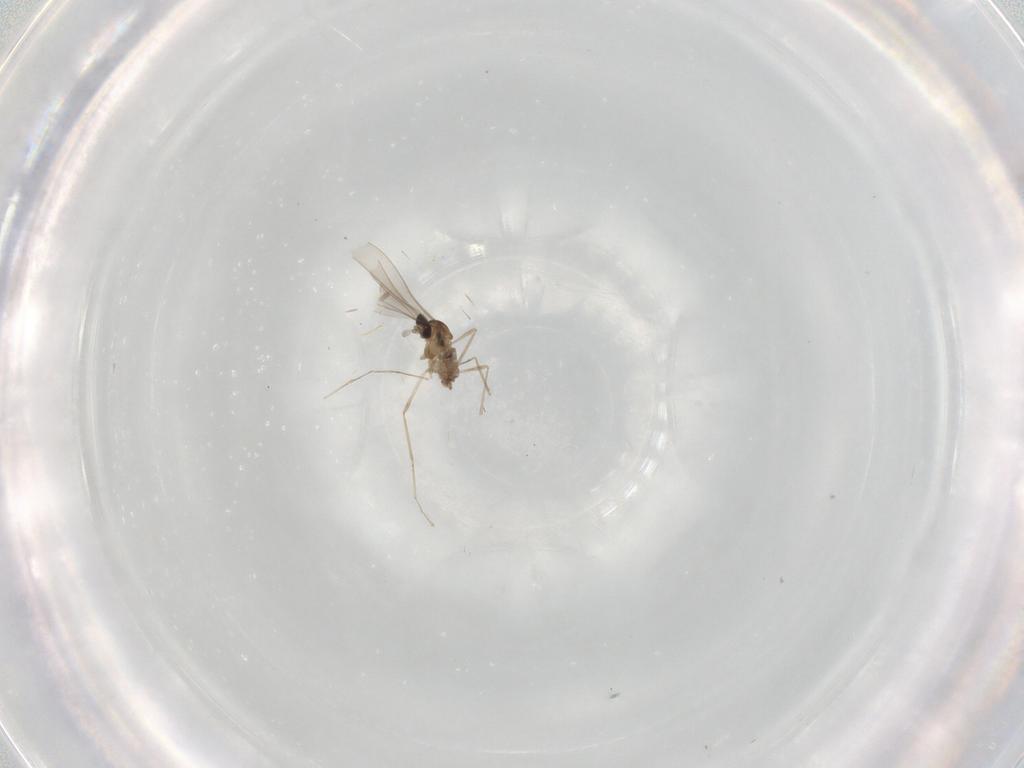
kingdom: Animalia
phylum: Arthropoda
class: Insecta
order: Diptera
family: Cecidomyiidae
